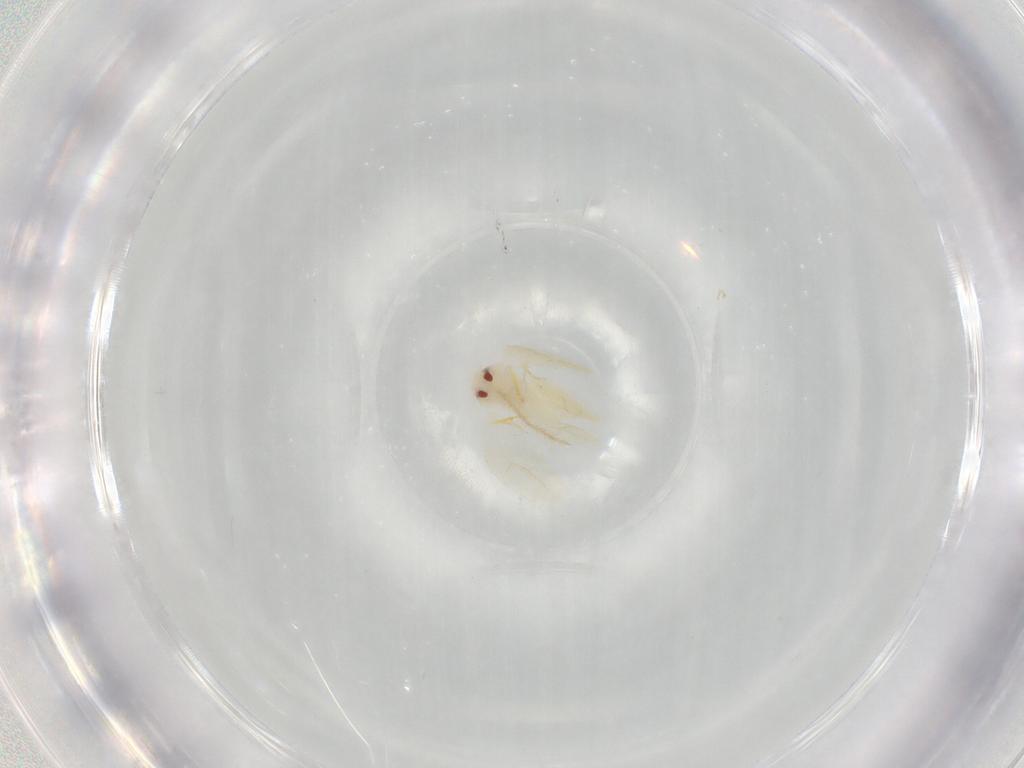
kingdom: Animalia
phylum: Arthropoda
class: Insecta
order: Hemiptera
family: Aleyrodidae
